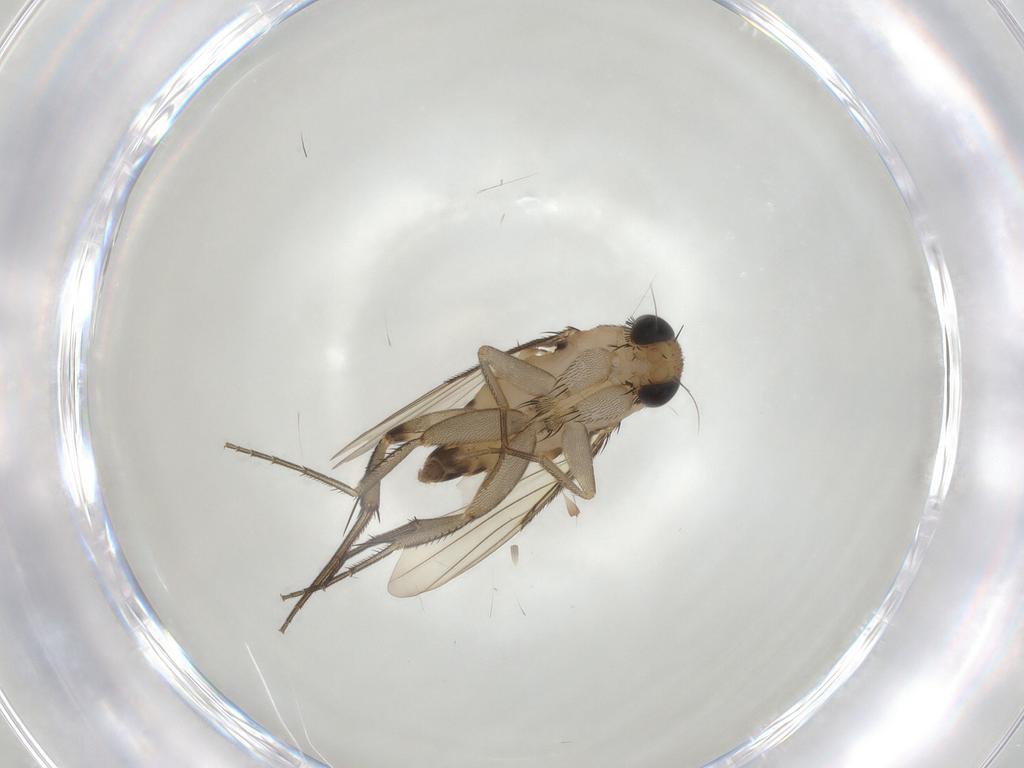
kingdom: Animalia
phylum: Arthropoda
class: Insecta
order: Diptera
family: Phoridae
